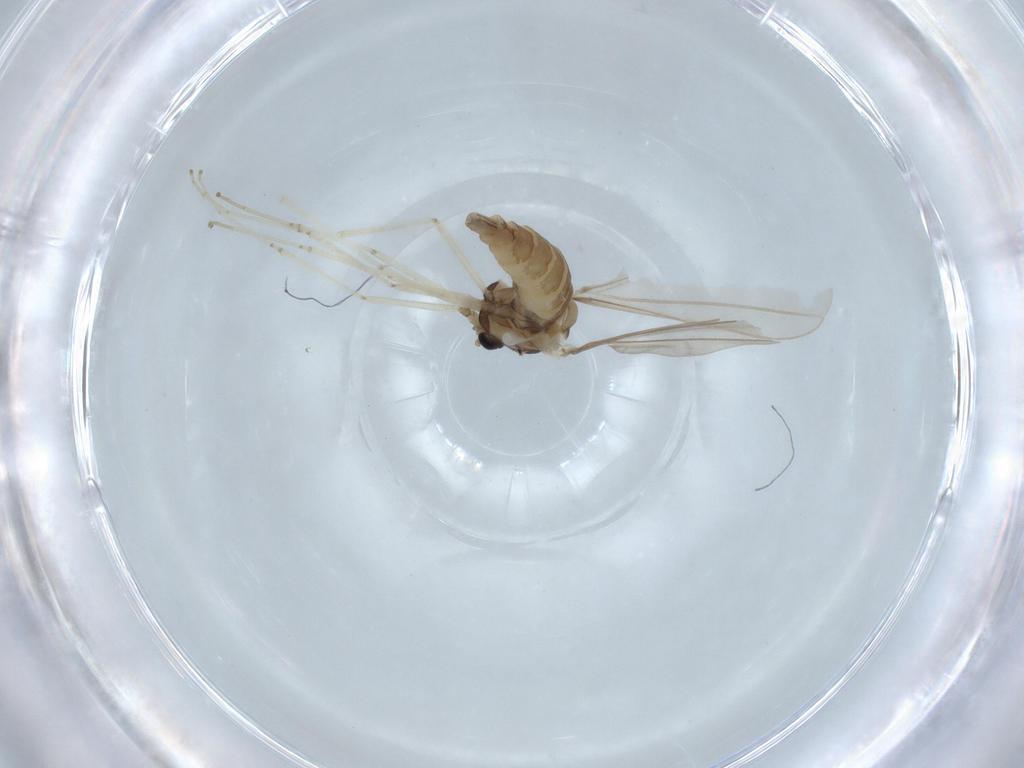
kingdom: Animalia
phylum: Arthropoda
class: Insecta
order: Diptera
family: Cecidomyiidae
